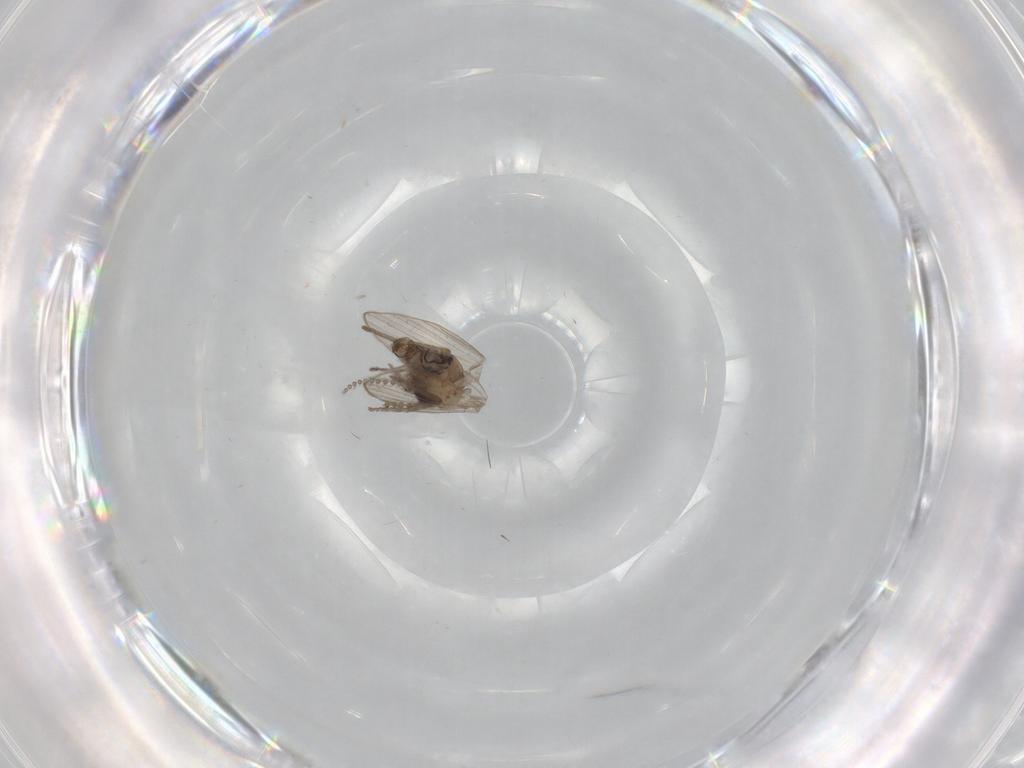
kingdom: Animalia
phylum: Arthropoda
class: Insecta
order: Diptera
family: Psychodidae
